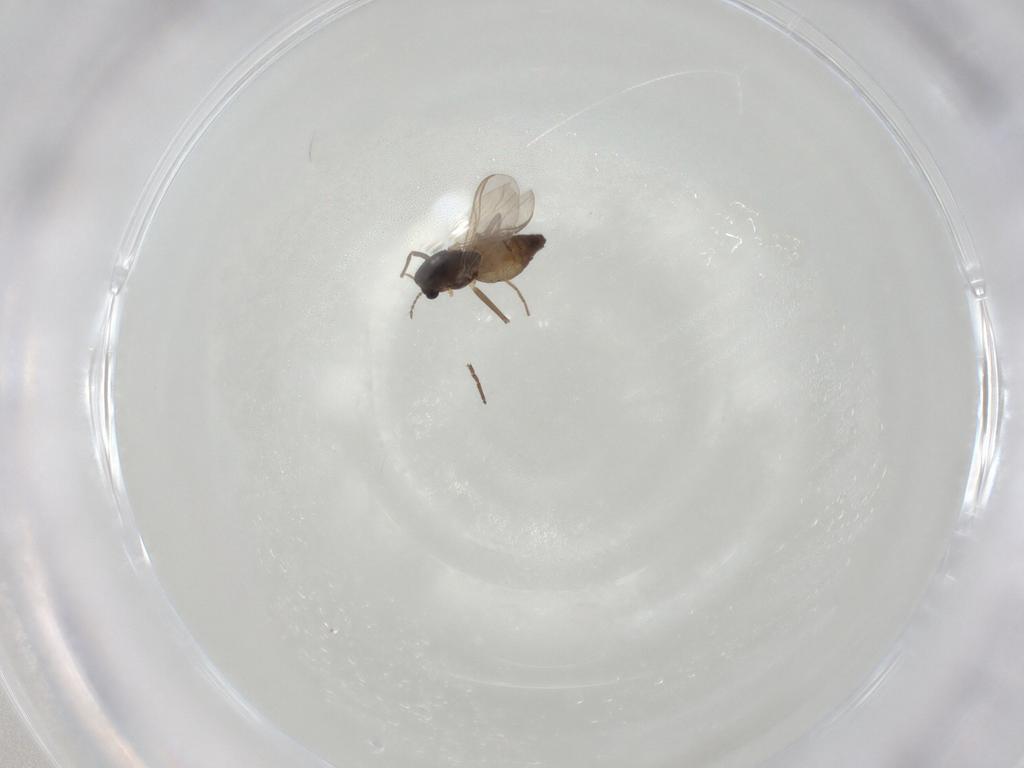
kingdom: Animalia
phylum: Arthropoda
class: Insecta
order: Diptera
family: Chironomidae
